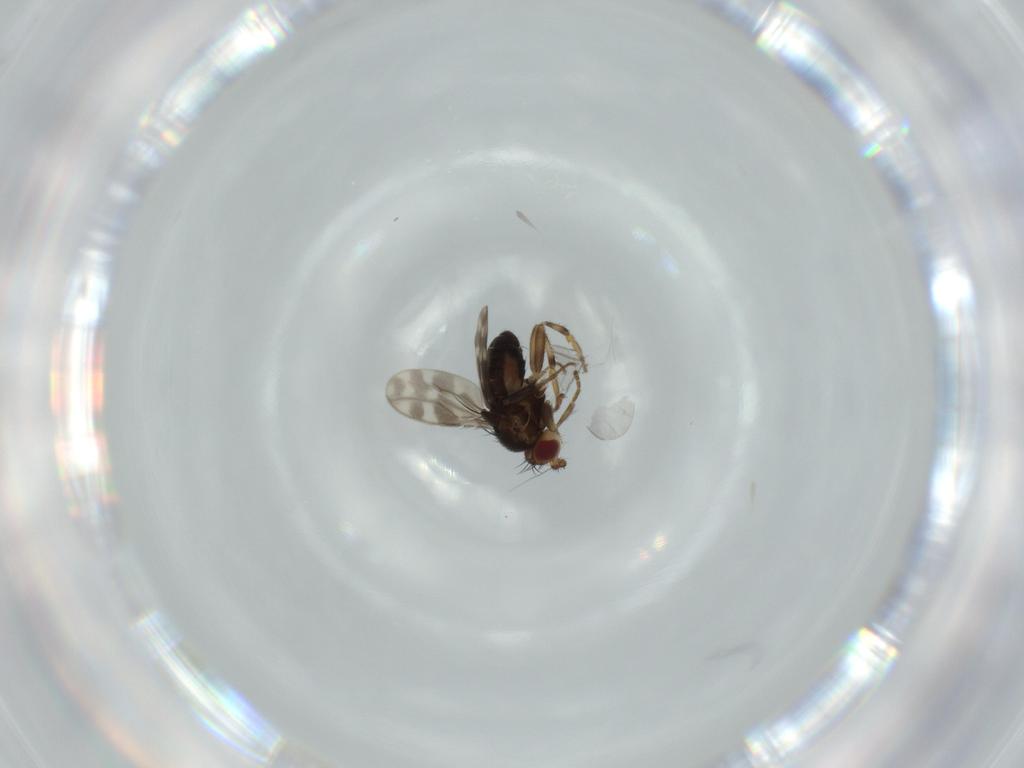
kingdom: Animalia
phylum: Arthropoda
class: Insecta
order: Diptera
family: Sphaeroceridae
